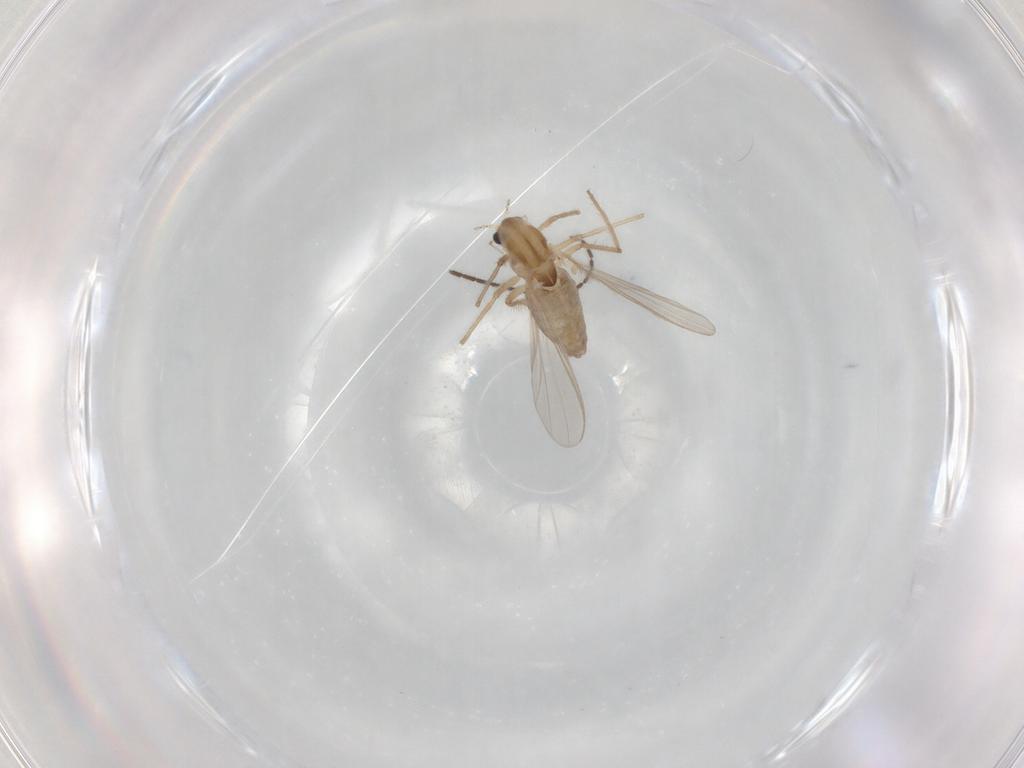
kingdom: Animalia
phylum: Arthropoda
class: Insecta
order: Diptera
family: Chironomidae
